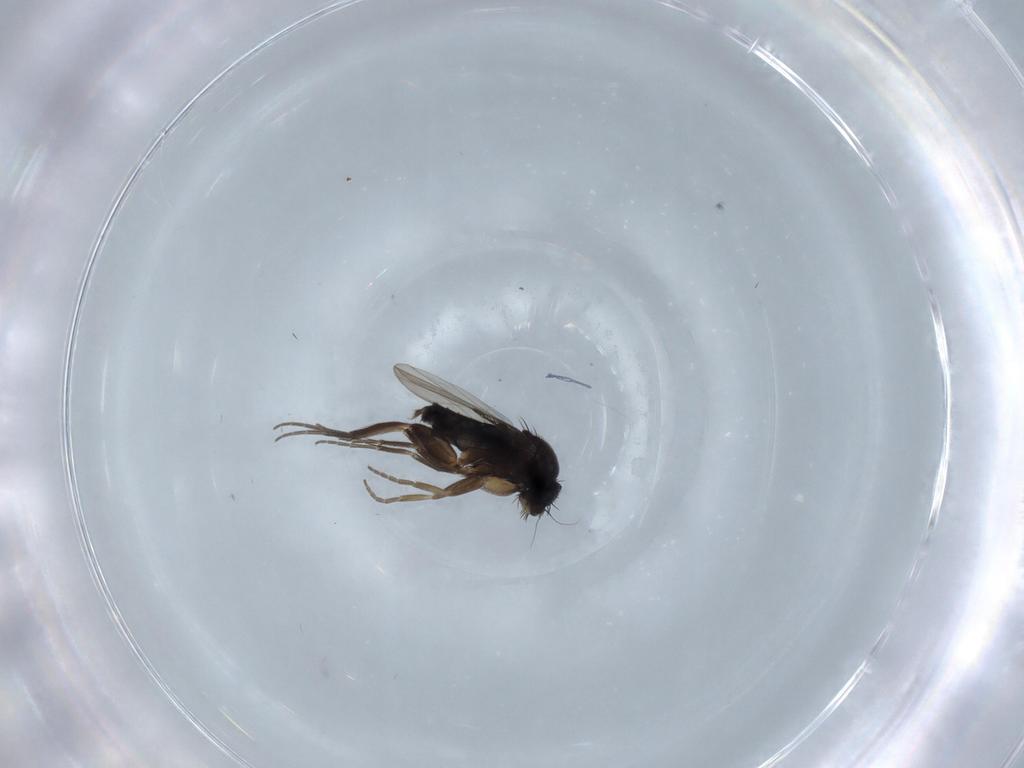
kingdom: Animalia
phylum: Arthropoda
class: Insecta
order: Diptera
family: Phoridae
